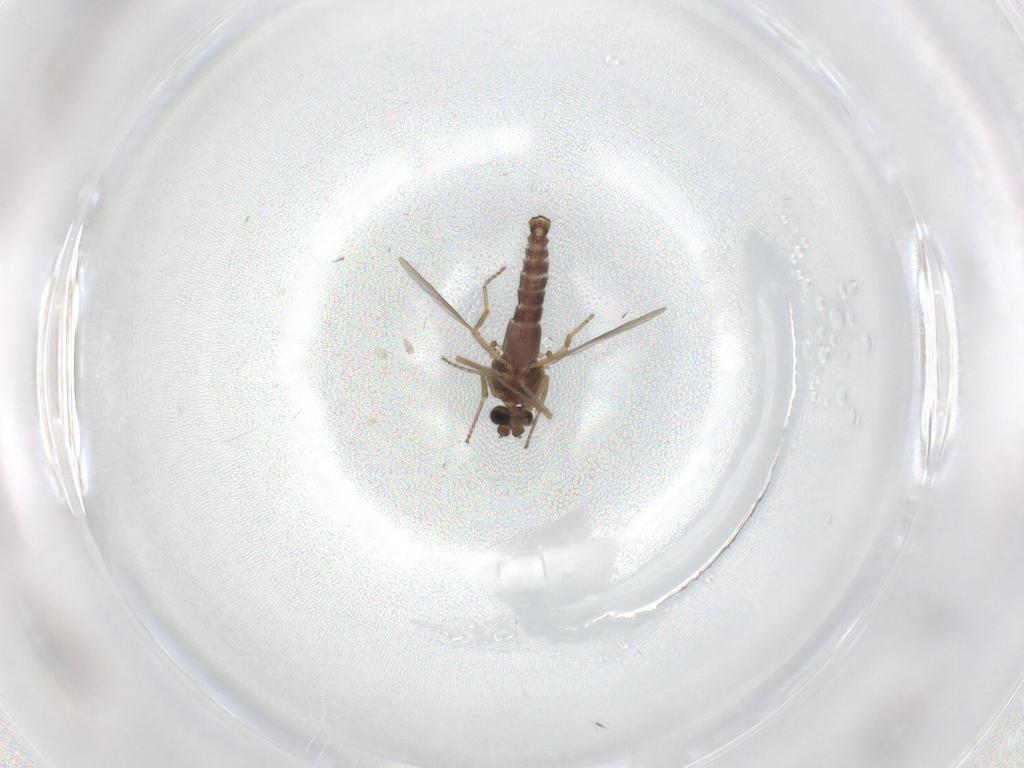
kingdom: Animalia
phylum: Arthropoda
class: Insecta
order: Diptera
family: Ceratopogonidae
